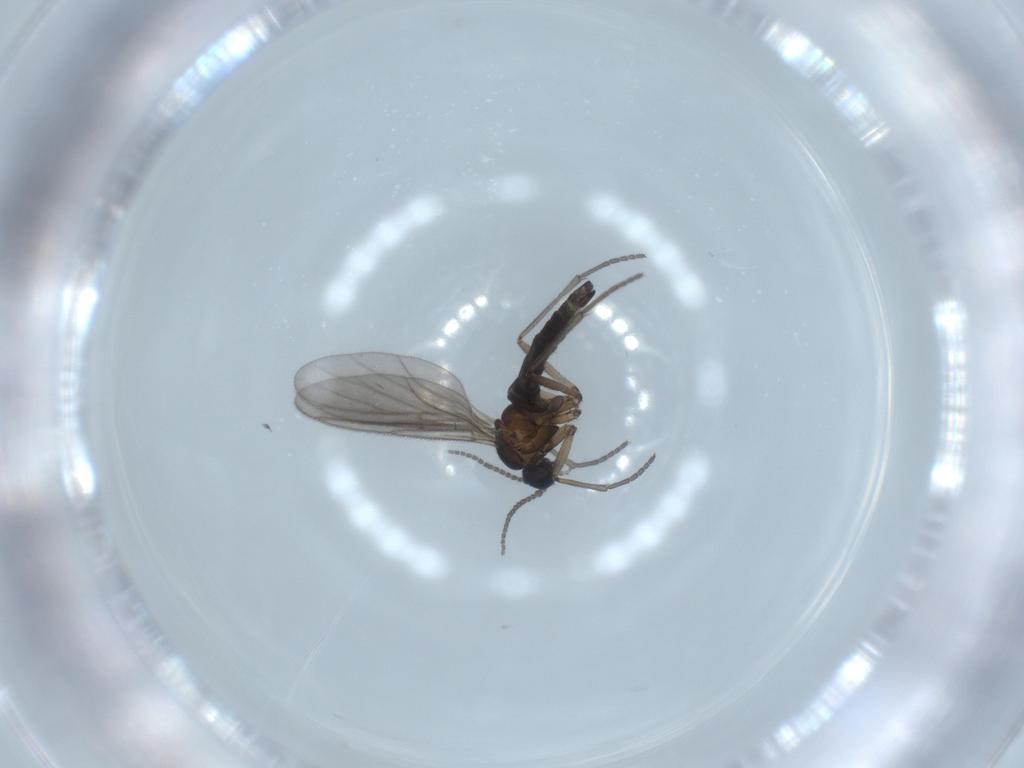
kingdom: Animalia
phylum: Arthropoda
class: Insecta
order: Diptera
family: Sciaridae
